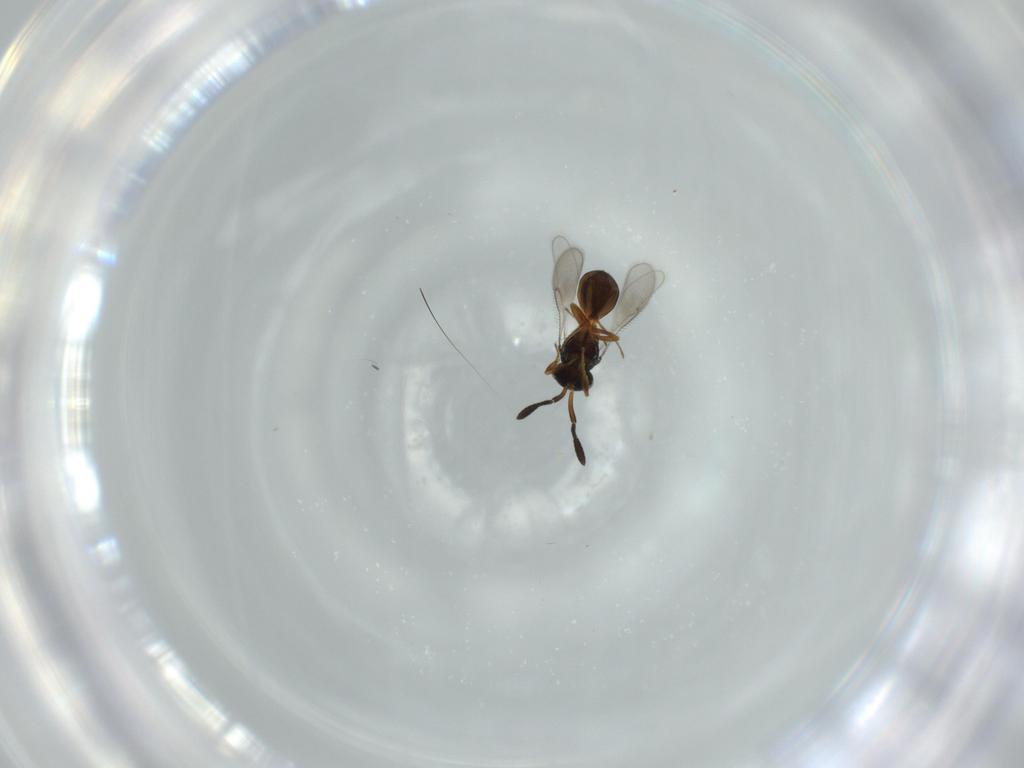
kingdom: Animalia
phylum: Arthropoda
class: Insecta
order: Hymenoptera
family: Scelionidae
